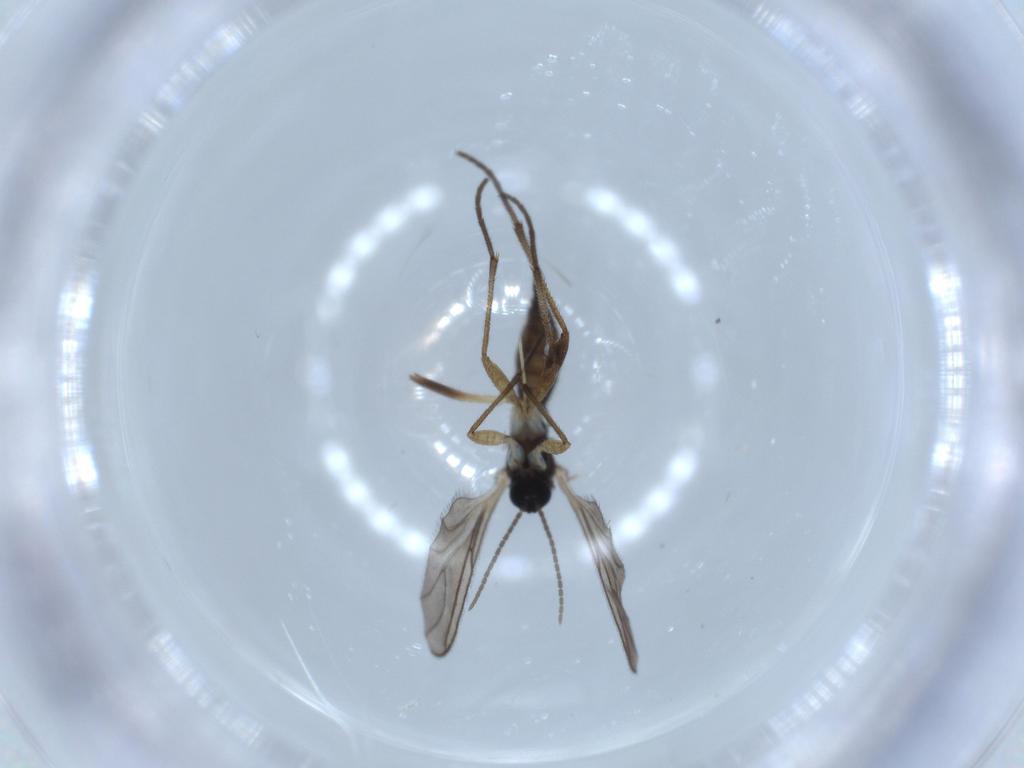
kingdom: Animalia
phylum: Arthropoda
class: Insecta
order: Diptera
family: Sciaridae
